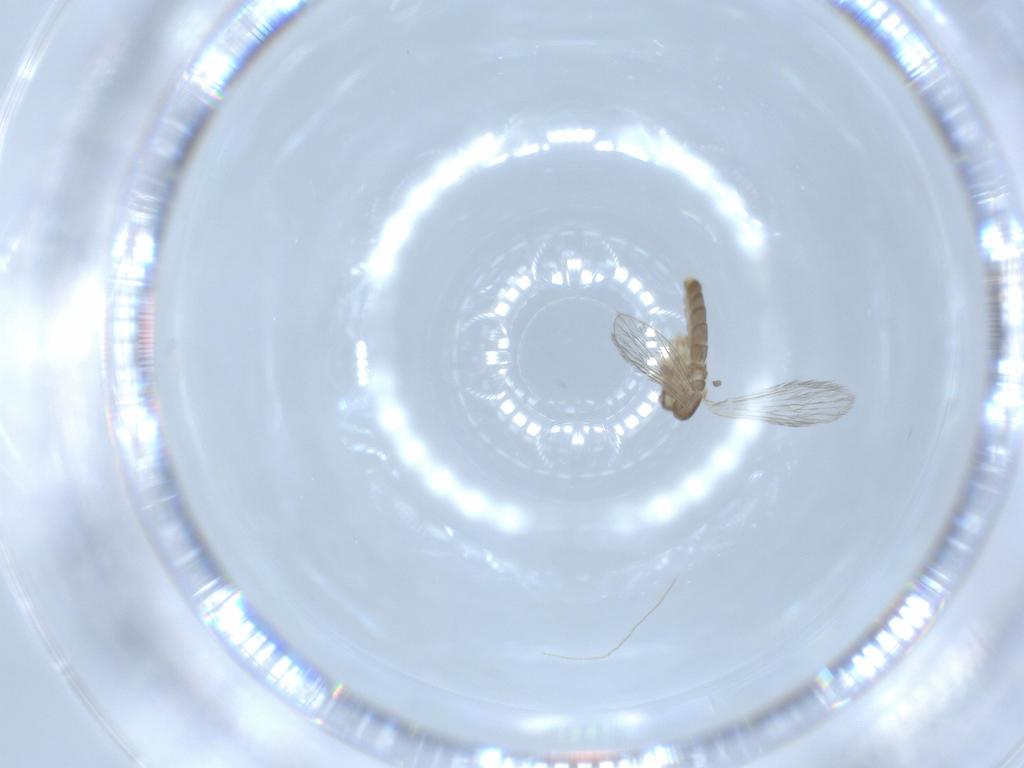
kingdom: Animalia
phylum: Arthropoda
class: Insecta
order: Diptera
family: Psychodidae
